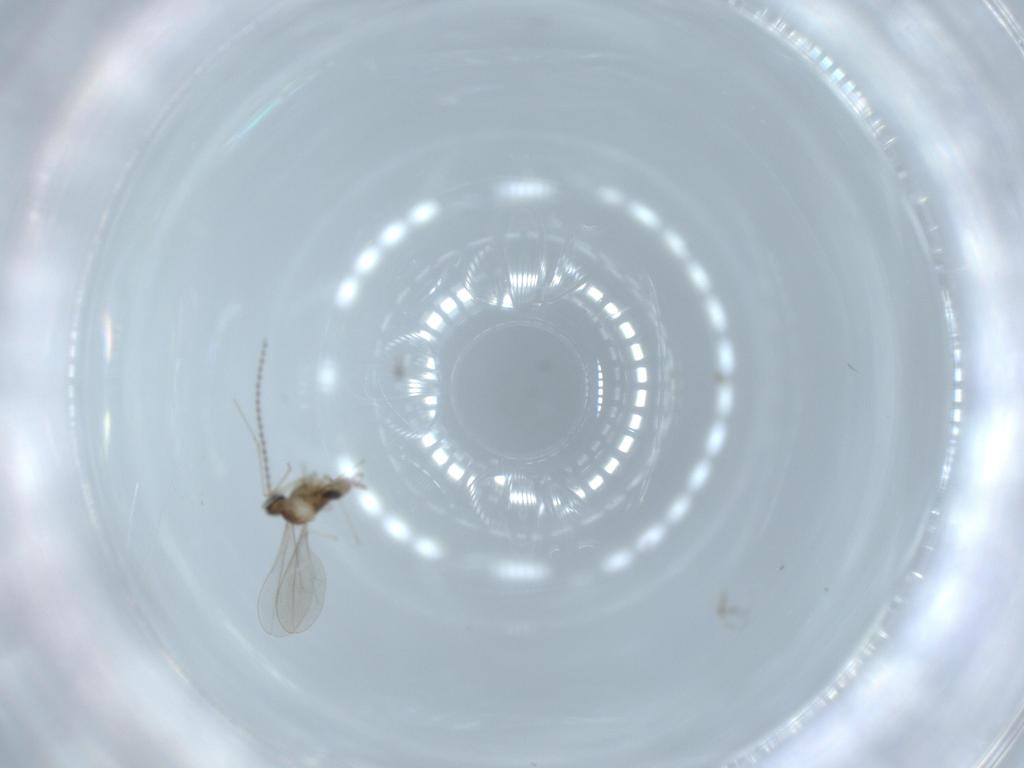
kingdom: Animalia
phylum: Arthropoda
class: Insecta
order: Diptera
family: Cecidomyiidae
